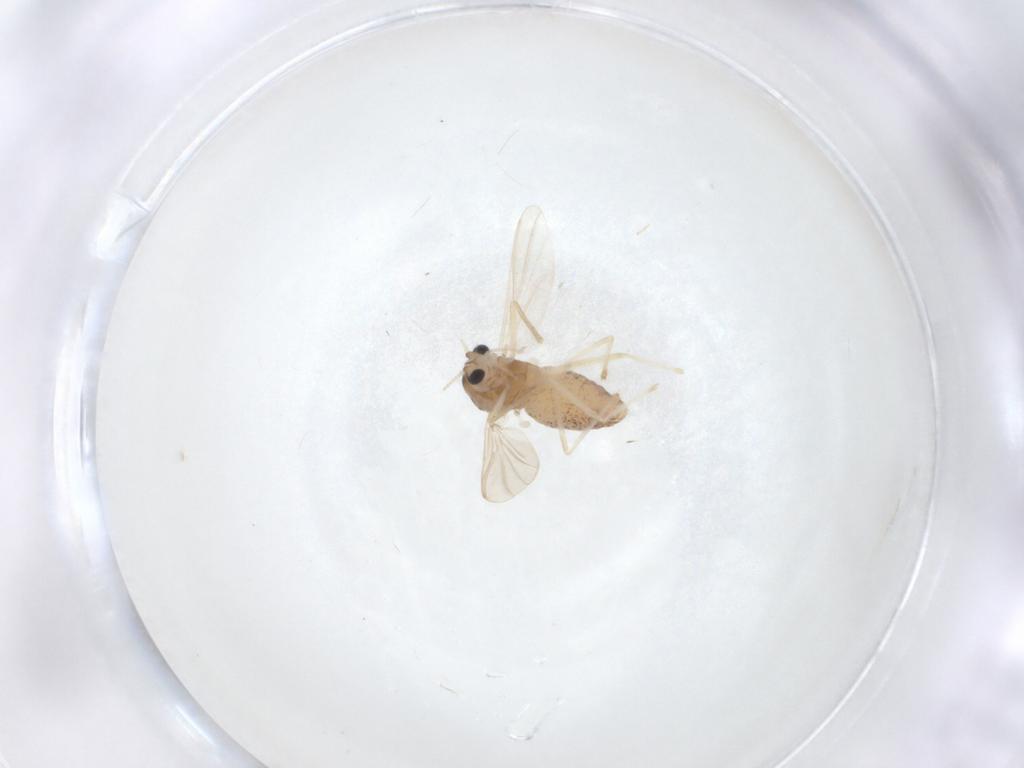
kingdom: Animalia
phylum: Arthropoda
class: Insecta
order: Diptera
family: Chironomidae
